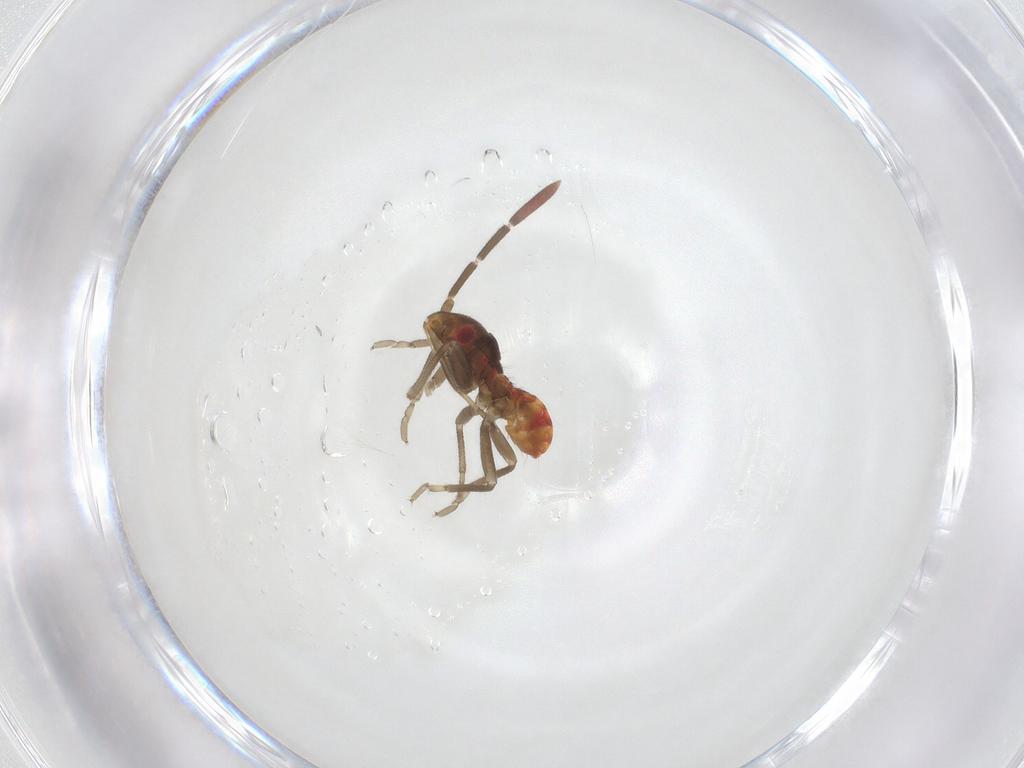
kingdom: Animalia
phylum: Arthropoda
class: Insecta
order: Hemiptera
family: Rhyparochromidae
